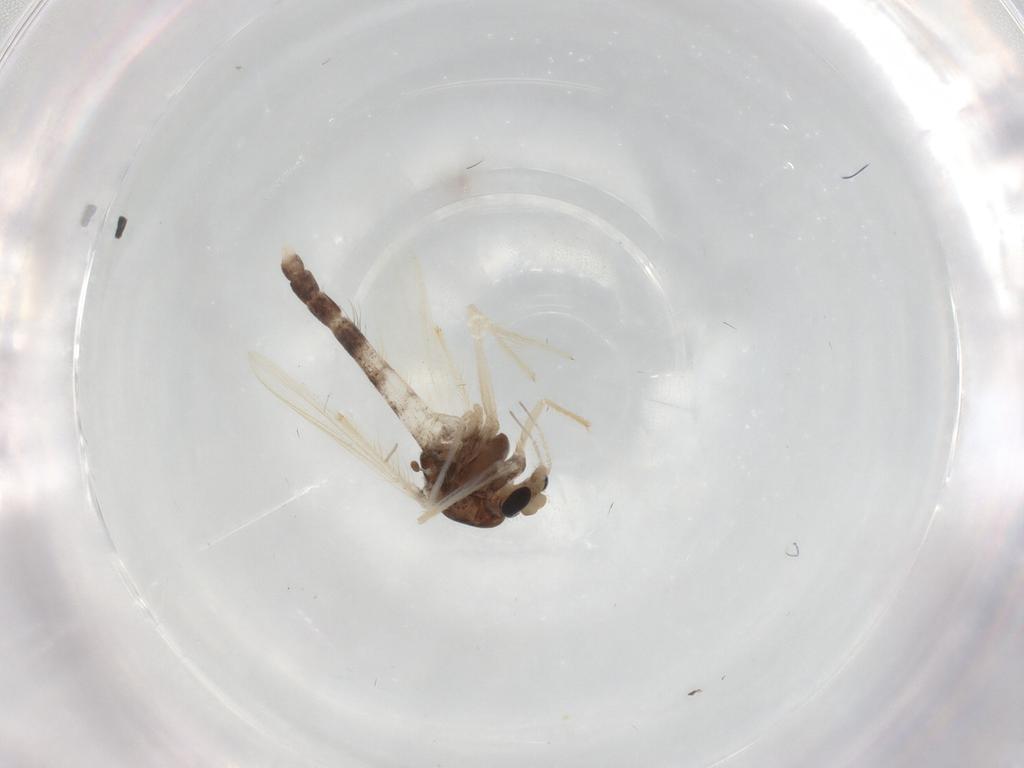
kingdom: Animalia
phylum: Arthropoda
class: Insecta
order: Diptera
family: Chironomidae
